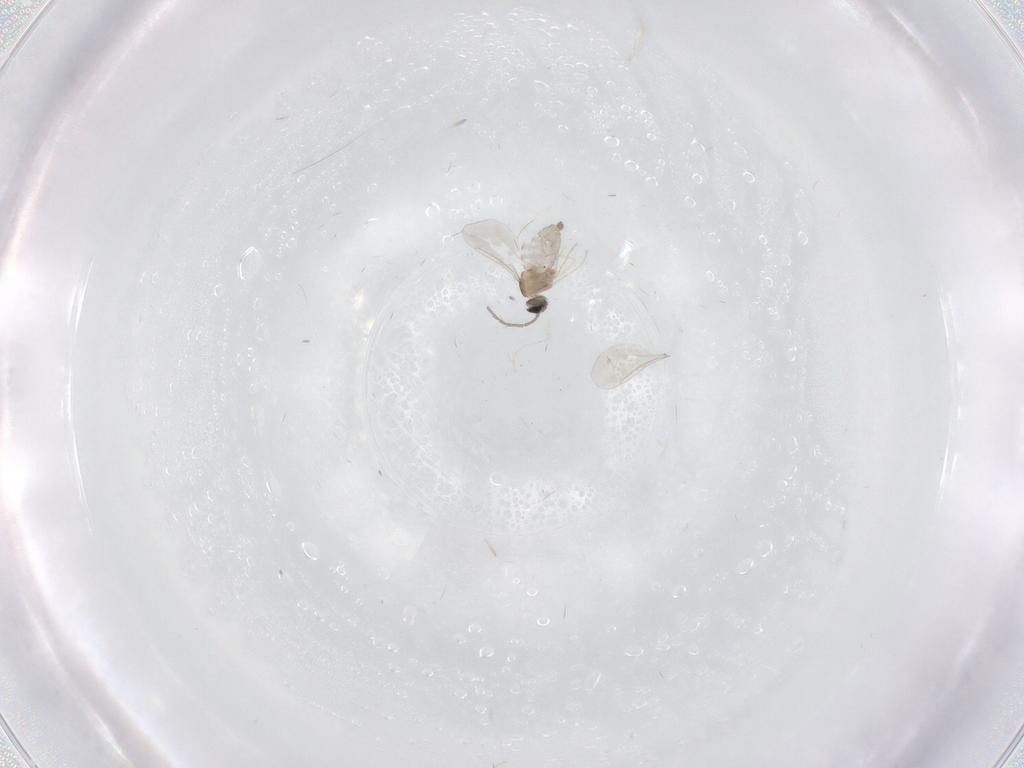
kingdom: Animalia
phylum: Arthropoda
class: Insecta
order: Diptera
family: Cecidomyiidae
